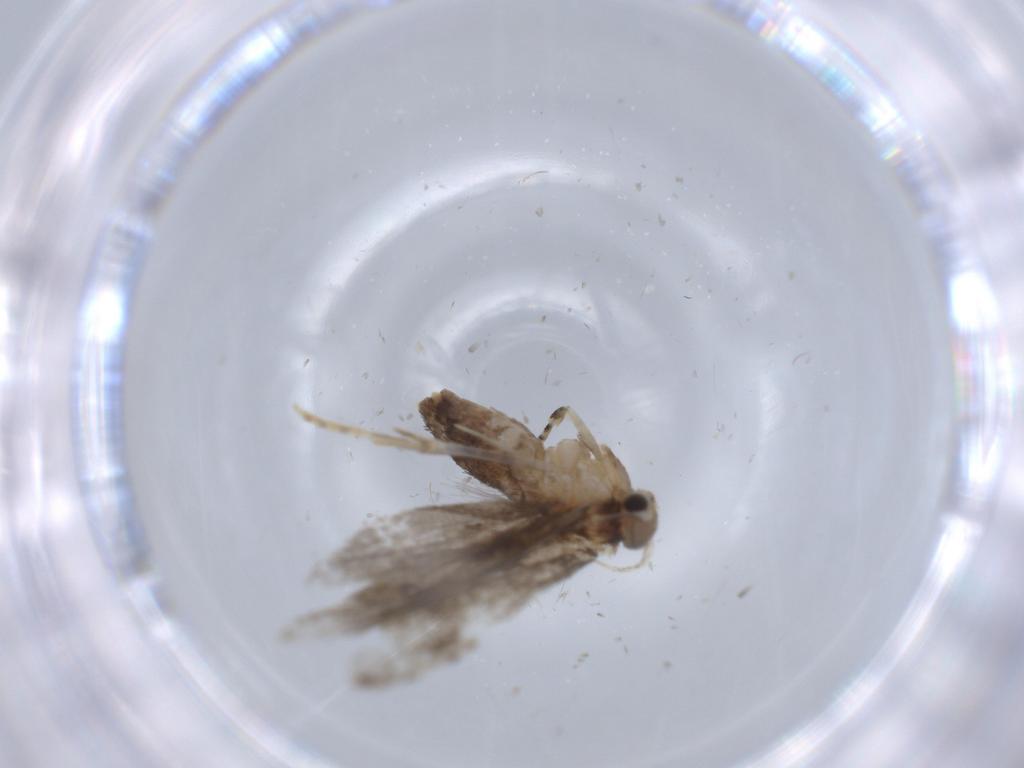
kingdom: Animalia
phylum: Arthropoda
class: Insecta
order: Lepidoptera
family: Tineidae
